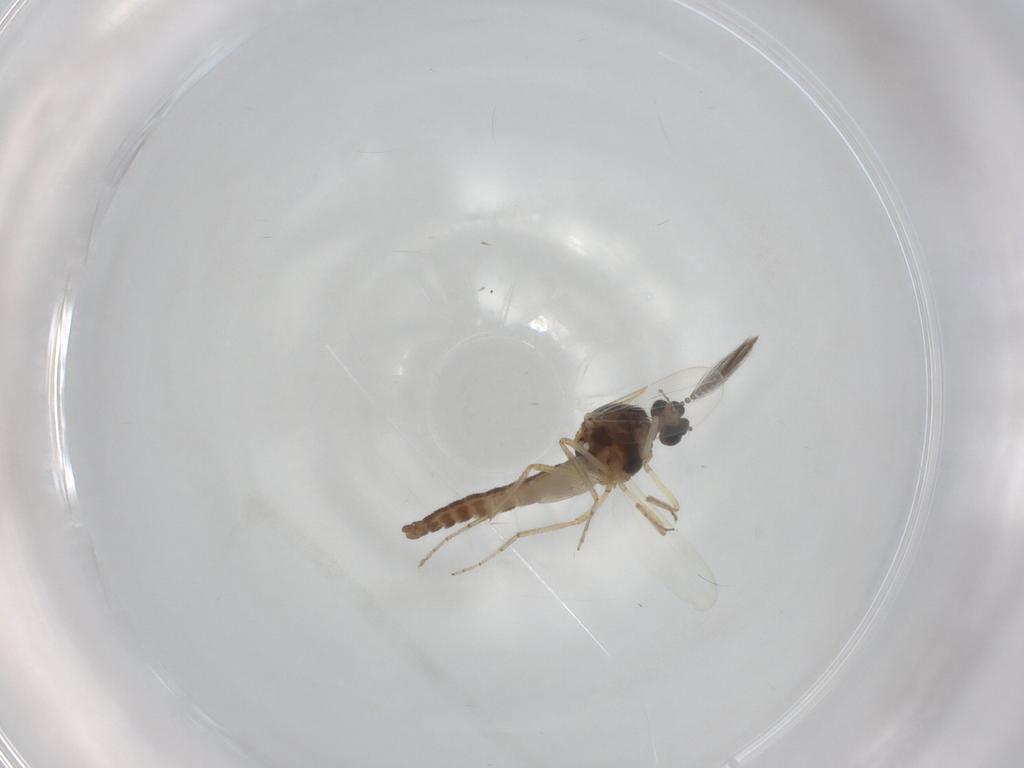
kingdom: Animalia
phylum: Arthropoda
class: Insecta
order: Diptera
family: Ceratopogonidae
